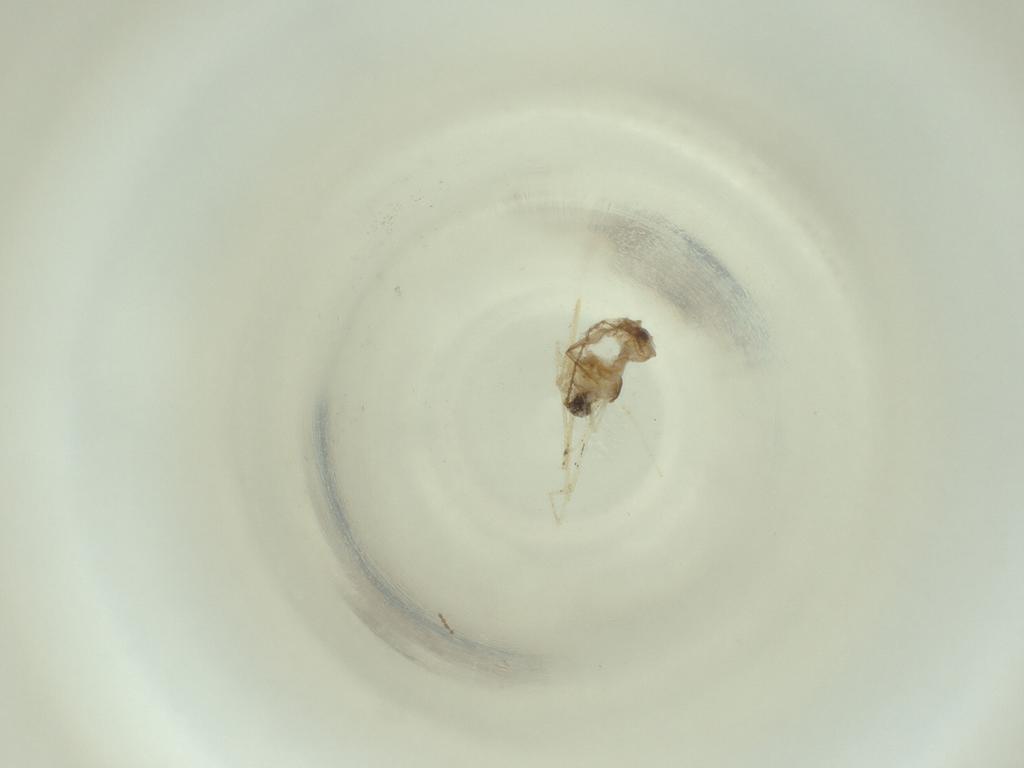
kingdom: Animalia
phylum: Arthropoda
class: Insecta
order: Diptera
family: Cecidomyiidae
